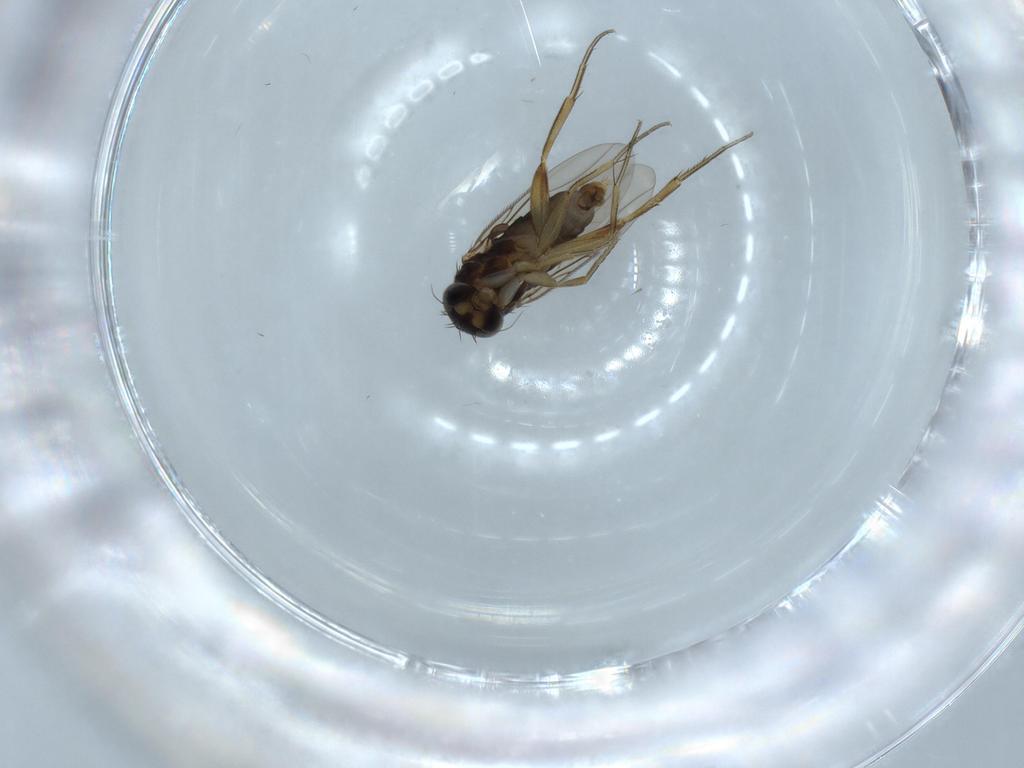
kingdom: Animalia
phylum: Arthropoda
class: Insecta
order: Diptera
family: Phoridae
